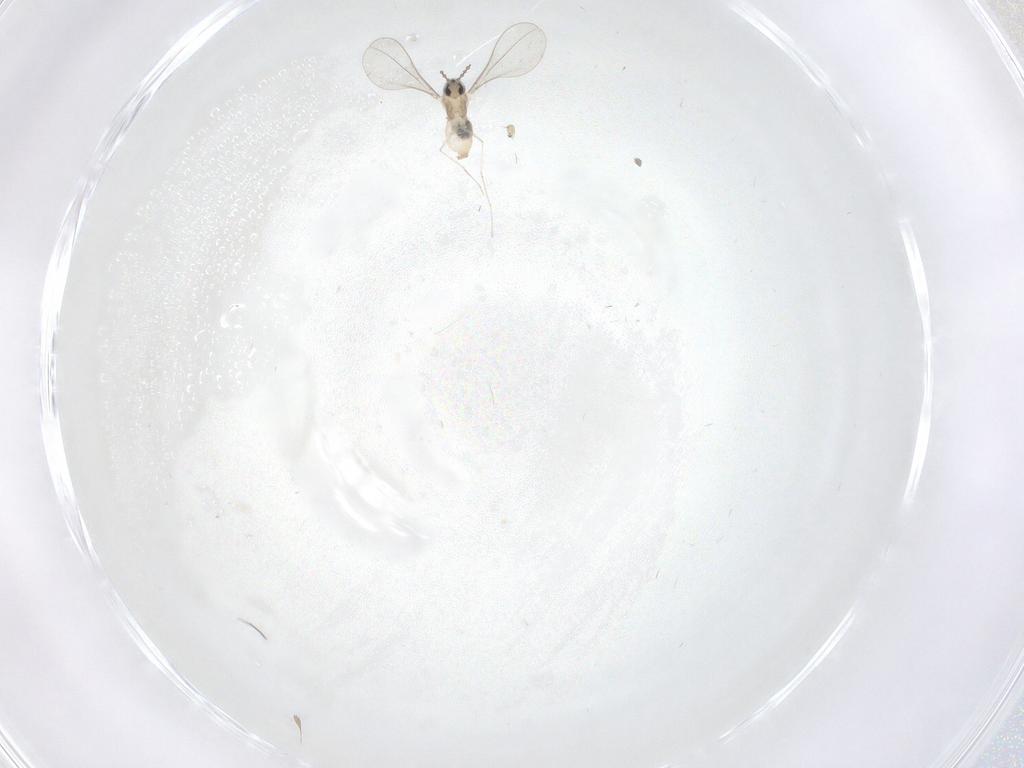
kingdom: Animalia
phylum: Arthropoda
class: Insecta
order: Diptera
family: Cecidomyiidae
